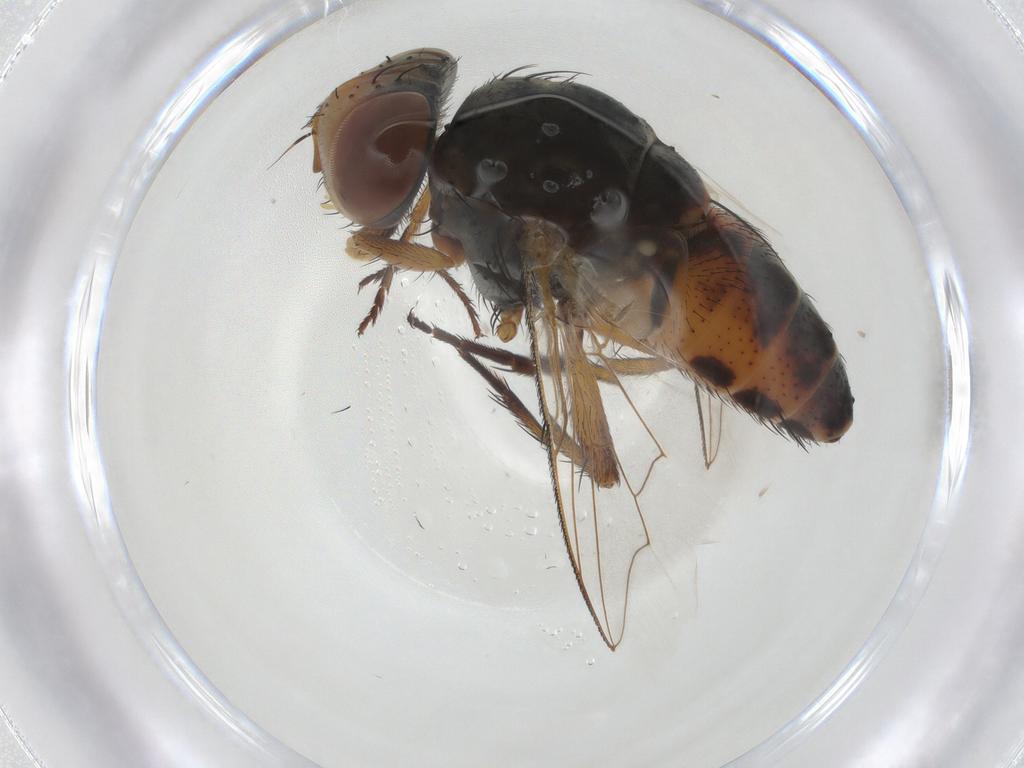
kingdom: Animalia
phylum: Arthropoda
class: Insecta
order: Diptera
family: Sarcophagidae
